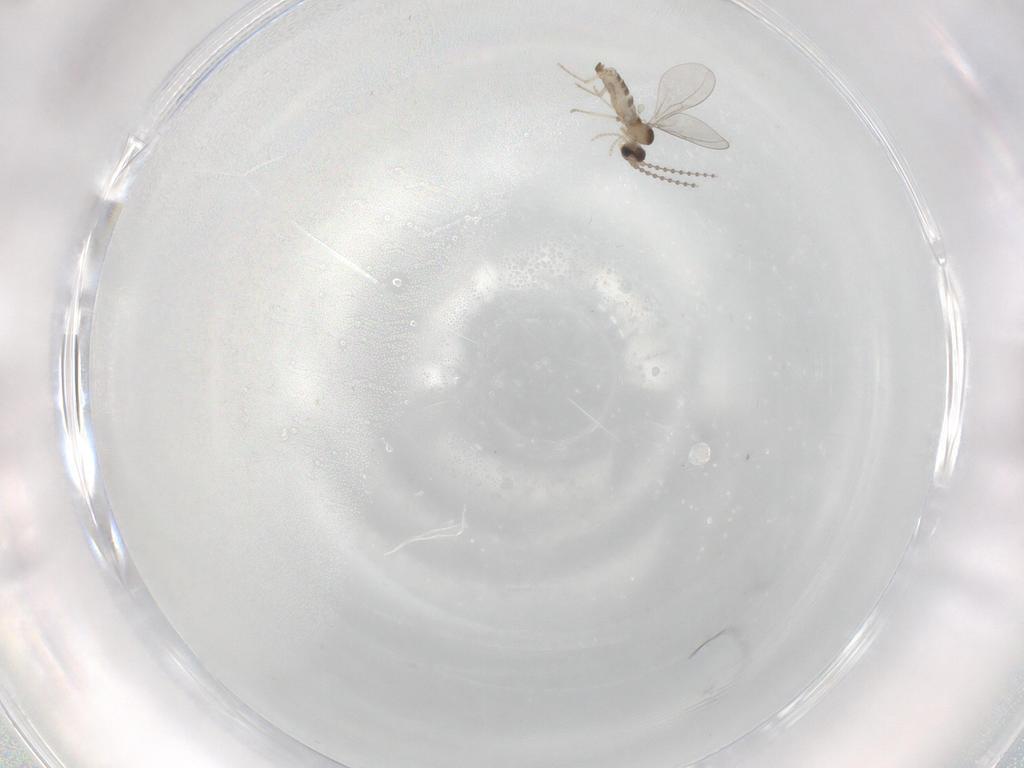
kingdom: Animalia
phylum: Arthropoda
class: Insecta
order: Diptera
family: Cecidomyiidae
